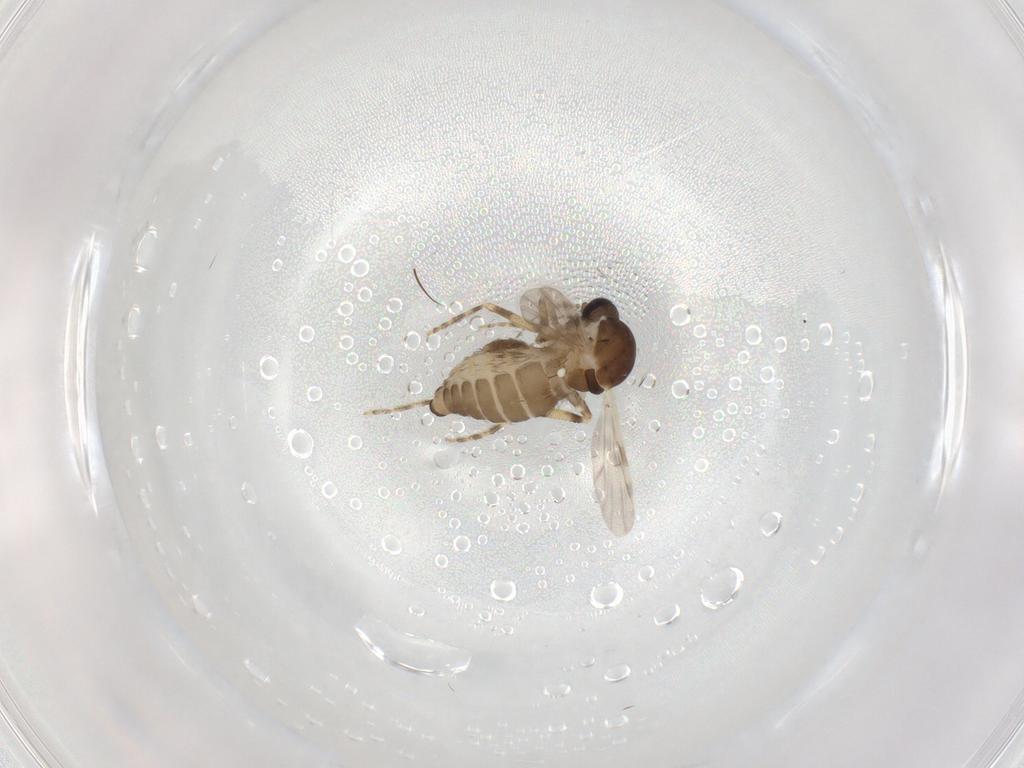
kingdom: Animalia
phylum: Arthropoda
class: Insecta
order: Diptera
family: Ceratopogonidae
